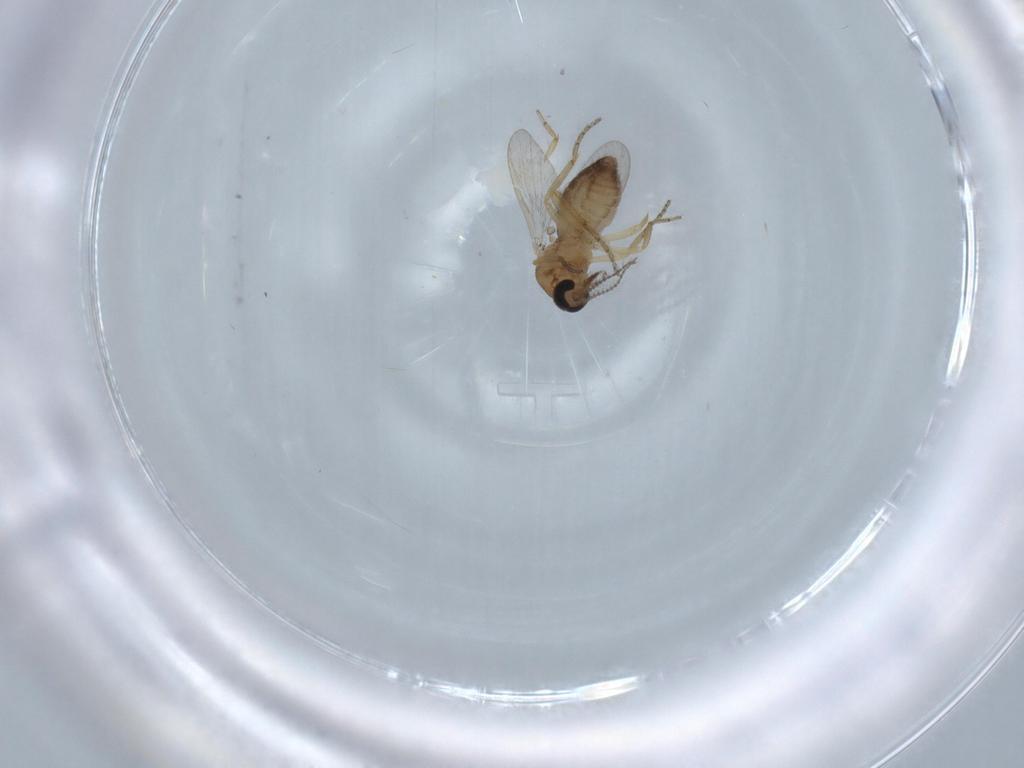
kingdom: Animalia
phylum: Arthropoda
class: Insecta
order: Diptera
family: Ceratopogonidae
